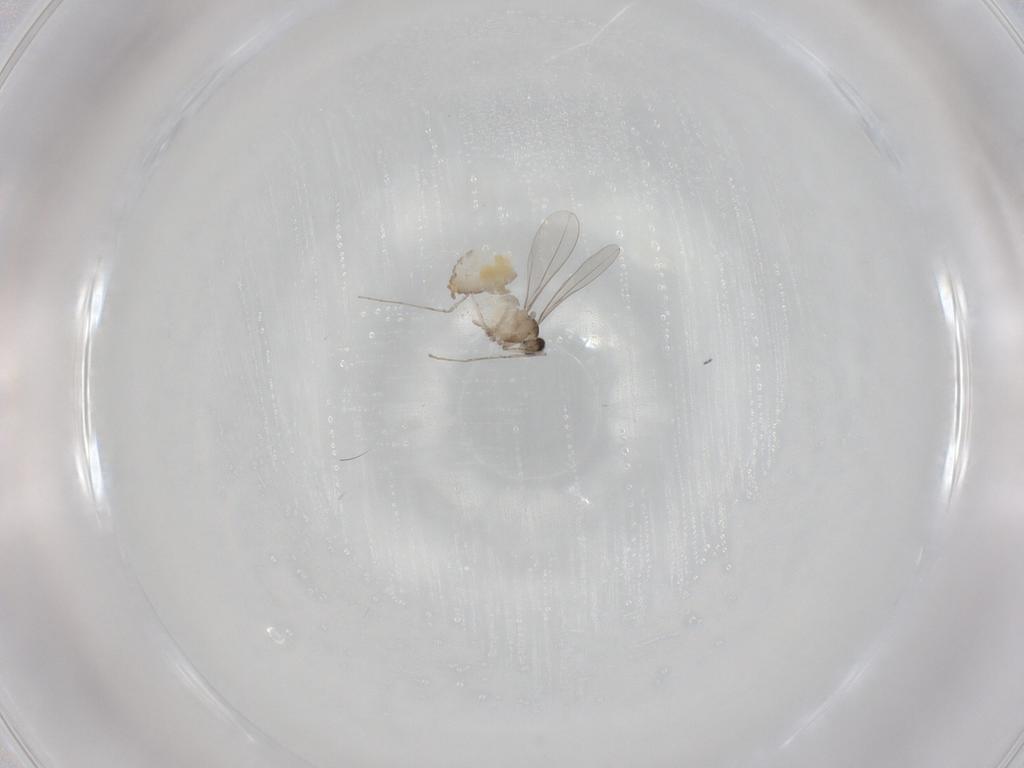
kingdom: Animalia
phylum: Arthropoda
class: Insecta
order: Diptera
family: Cecidomyiidae
